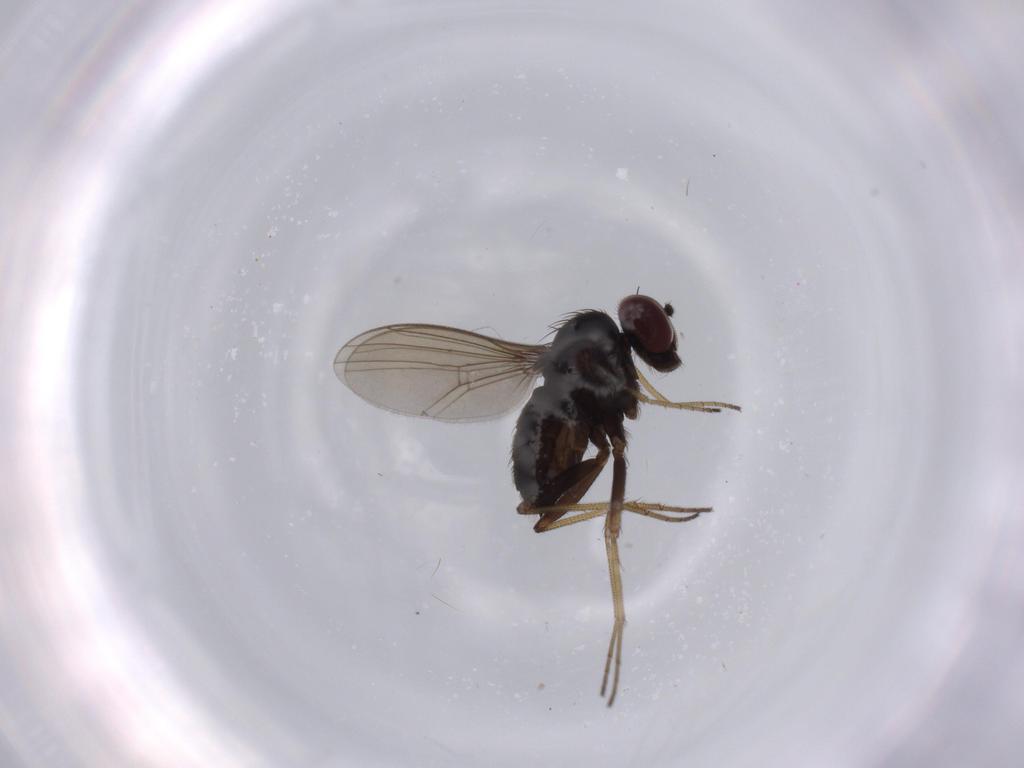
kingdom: Animalia
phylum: Arthropoda
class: Insecta
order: Diptera
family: Dolichopodidae
